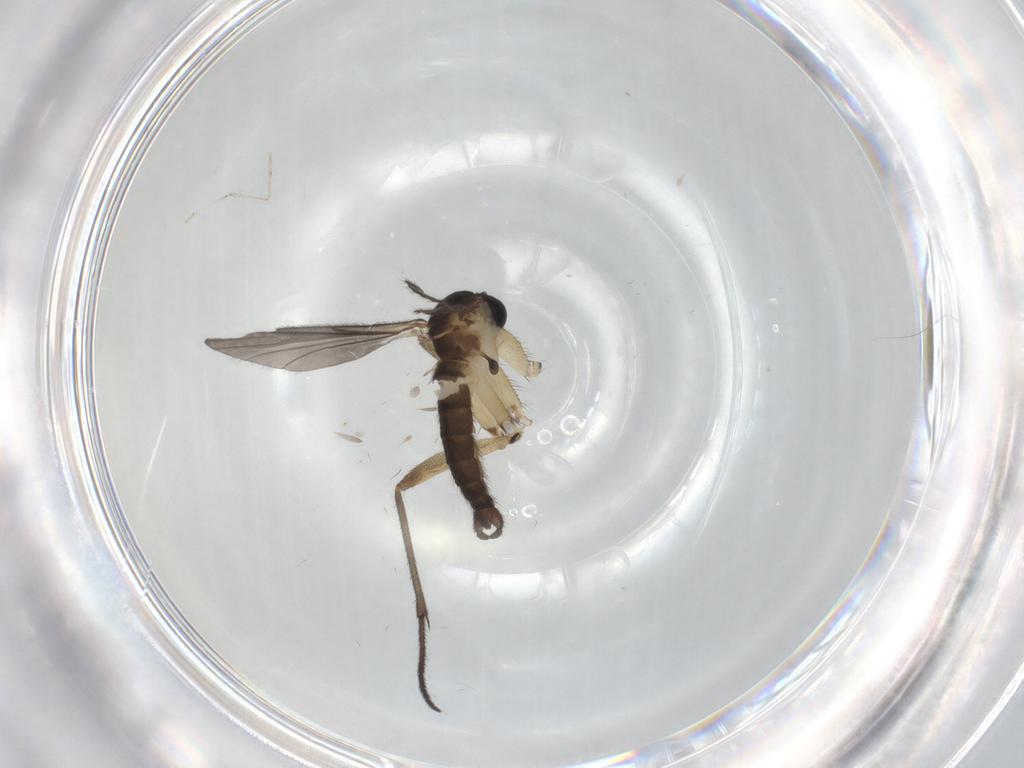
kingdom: Animalia
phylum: Arthropoda
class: Insecta
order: Diptera
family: Sciaridae
